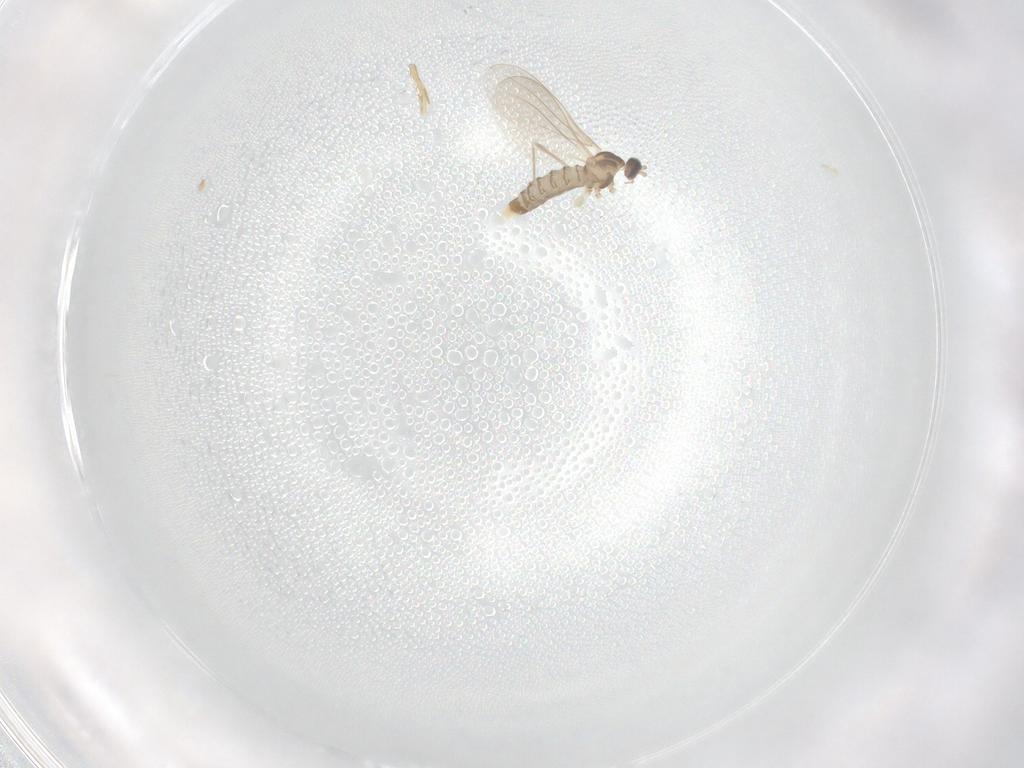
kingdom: Animalia
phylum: Arthropoda
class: Insecta
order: Diptera
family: Cecidomyiidae
